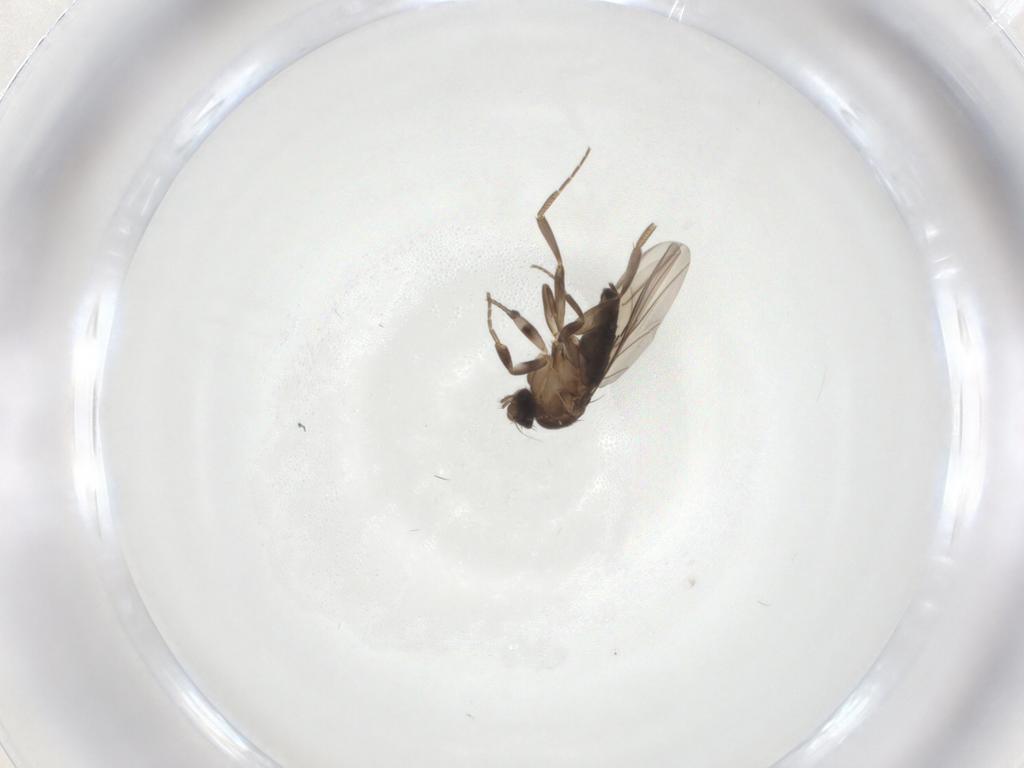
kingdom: Animalia
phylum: Arthropoda
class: Insecta
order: Diptera
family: Phoridae
